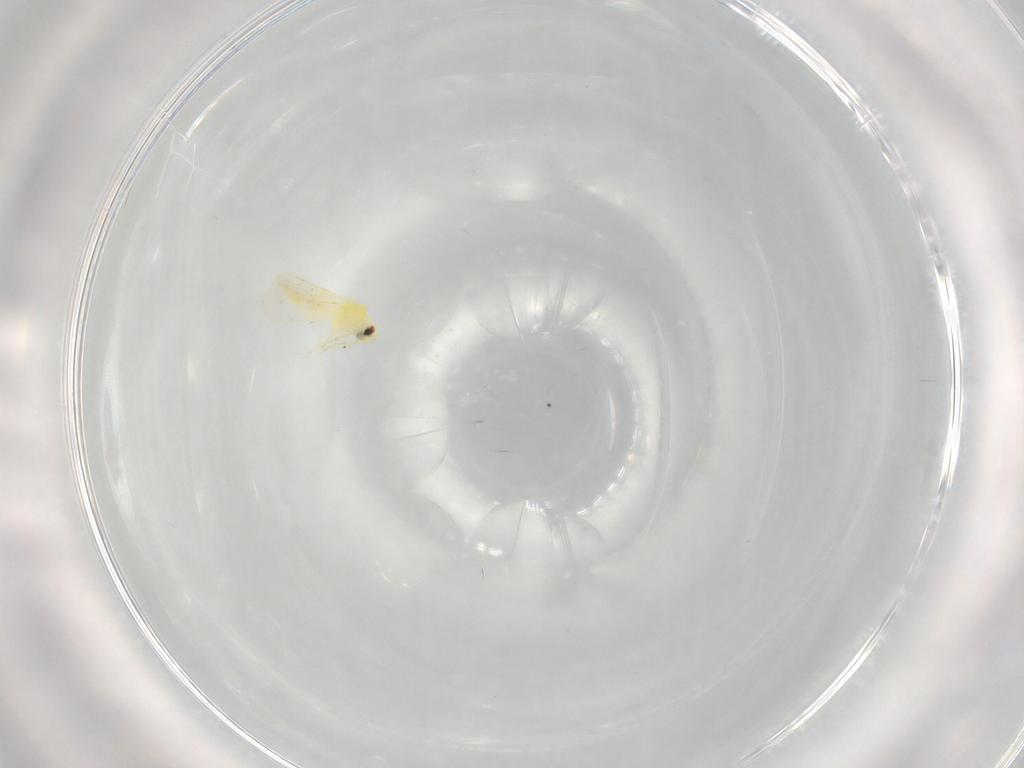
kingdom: Animalia
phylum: Arthropoda
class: Insecta
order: Hemiptera
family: Aleyrodidae
